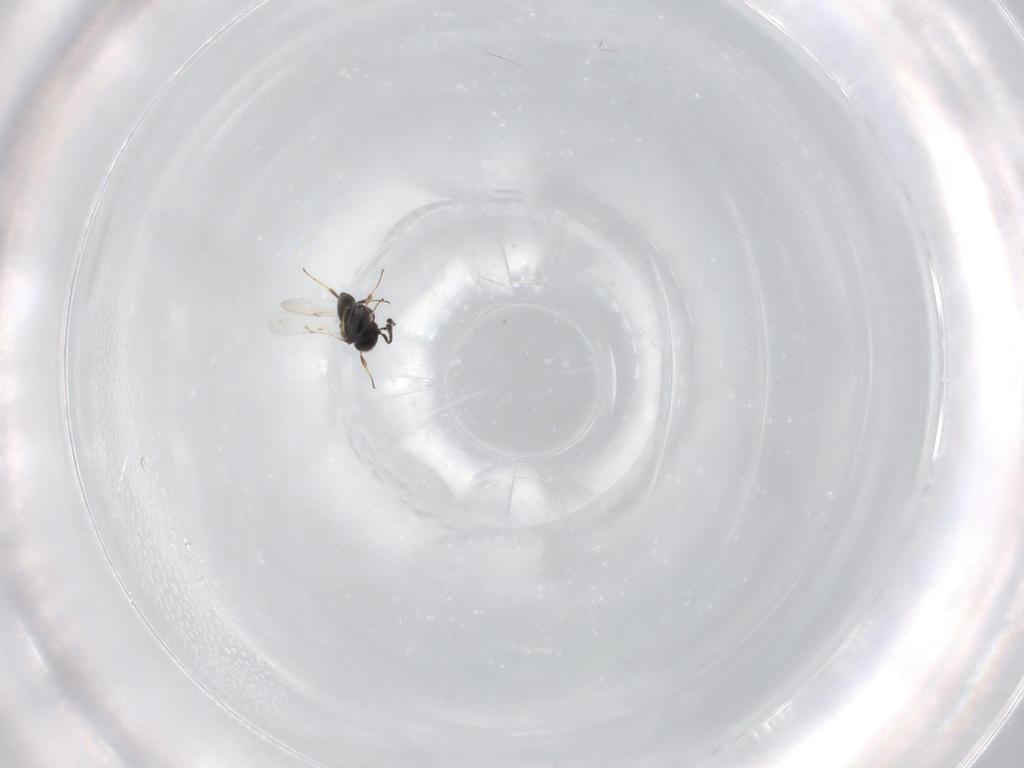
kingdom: Animalia
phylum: Arthropoda
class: Insecta
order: Hymenoptera
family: Scelionidae
